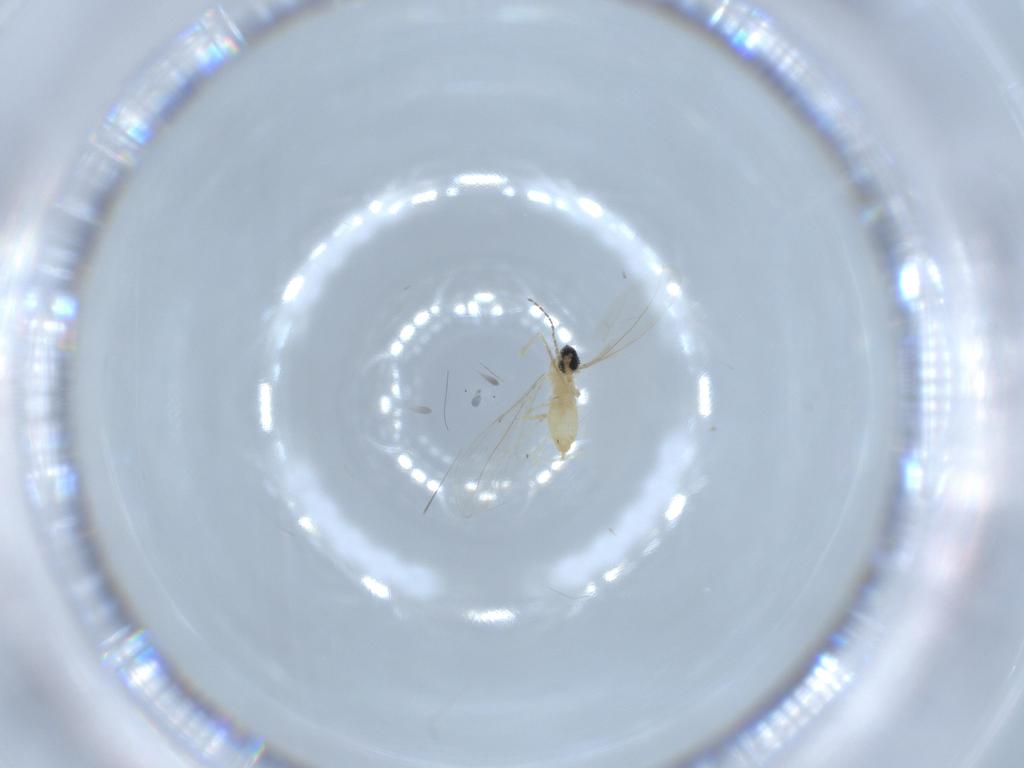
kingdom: Animalia
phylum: Arthropoda
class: Insecta
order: Diptera
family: Cecidomyiidae
